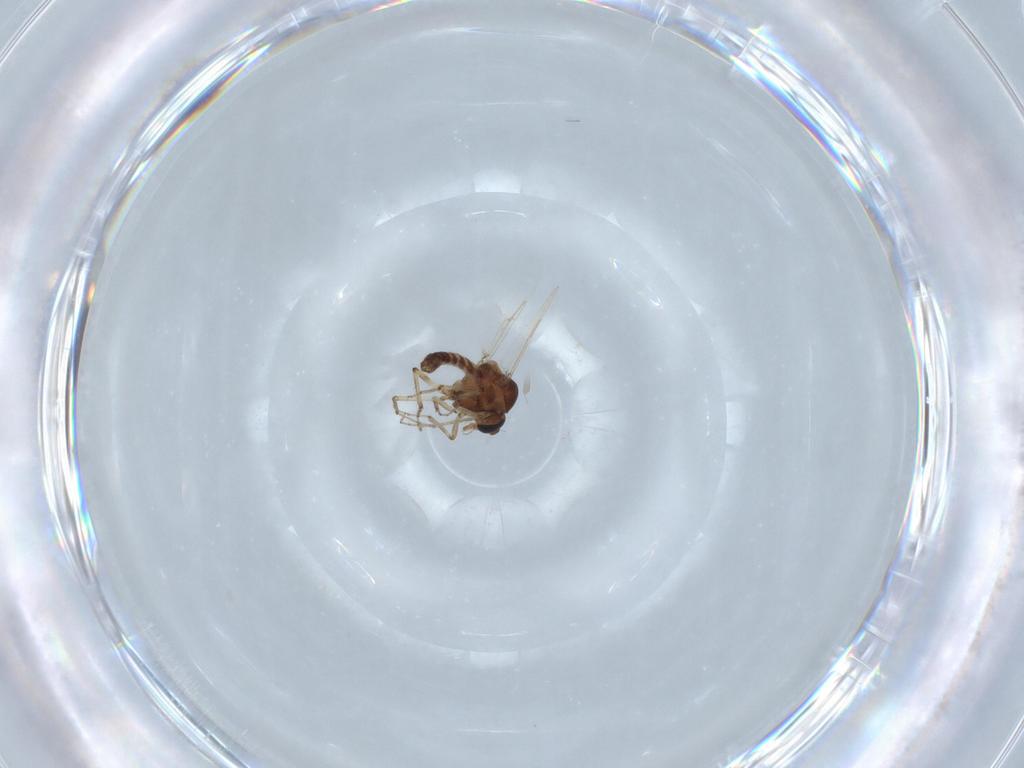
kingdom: Animalia
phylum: Arthropoda
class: Insecta
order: Diptera
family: Ceratopogonidae
